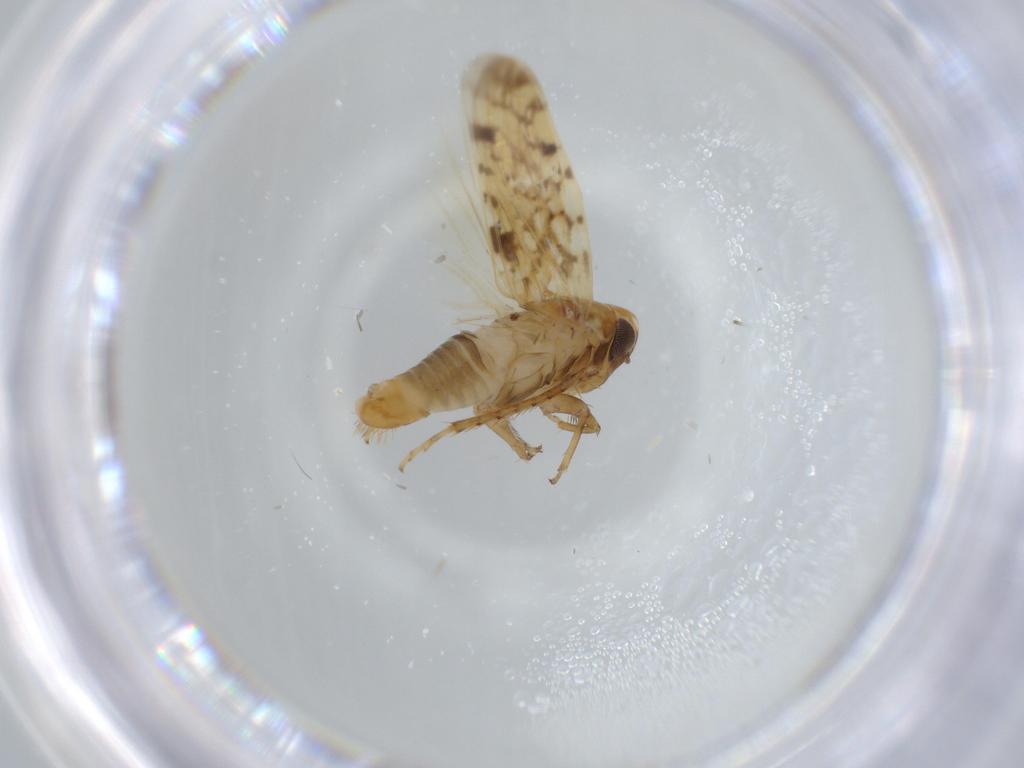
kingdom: Animalia
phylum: Arthropoda
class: Insecta
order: Hemiptera
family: Cicadellidae
